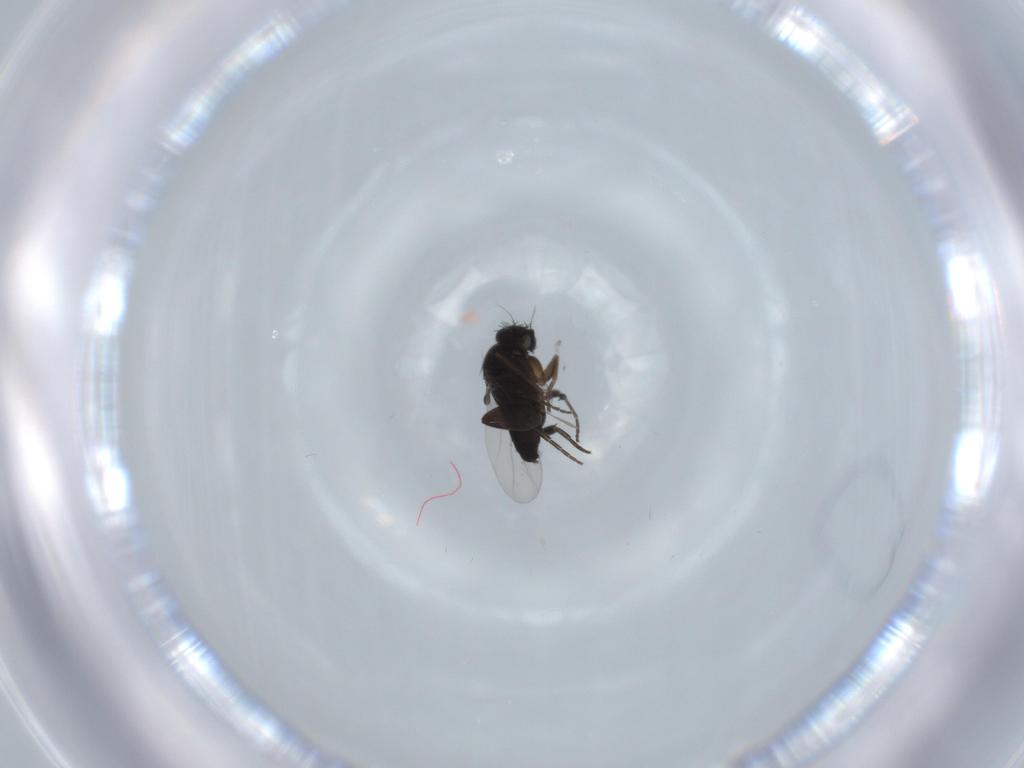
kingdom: Animalia
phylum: Arthropoda
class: Insecta
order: Diptera
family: Phoridae
